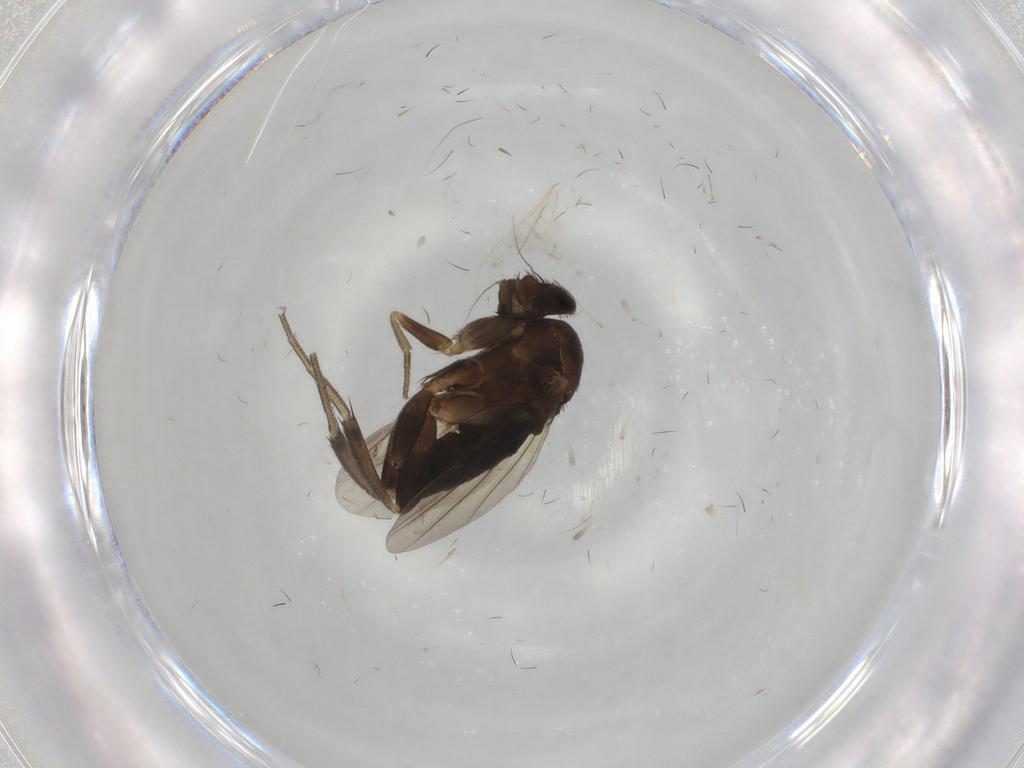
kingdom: Animalia
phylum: Arthropoda
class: Insecta
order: Diptera
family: Phoridae
